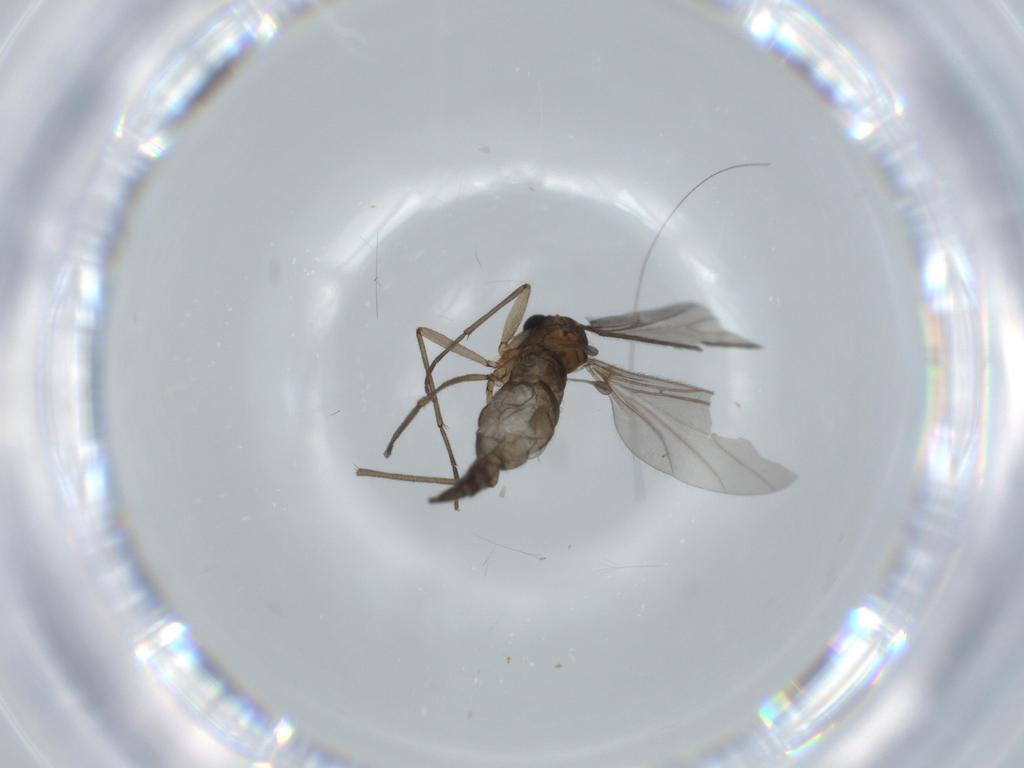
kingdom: Animalia
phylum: Arthropoda
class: Insecta
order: Diptera
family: Sciaridae
